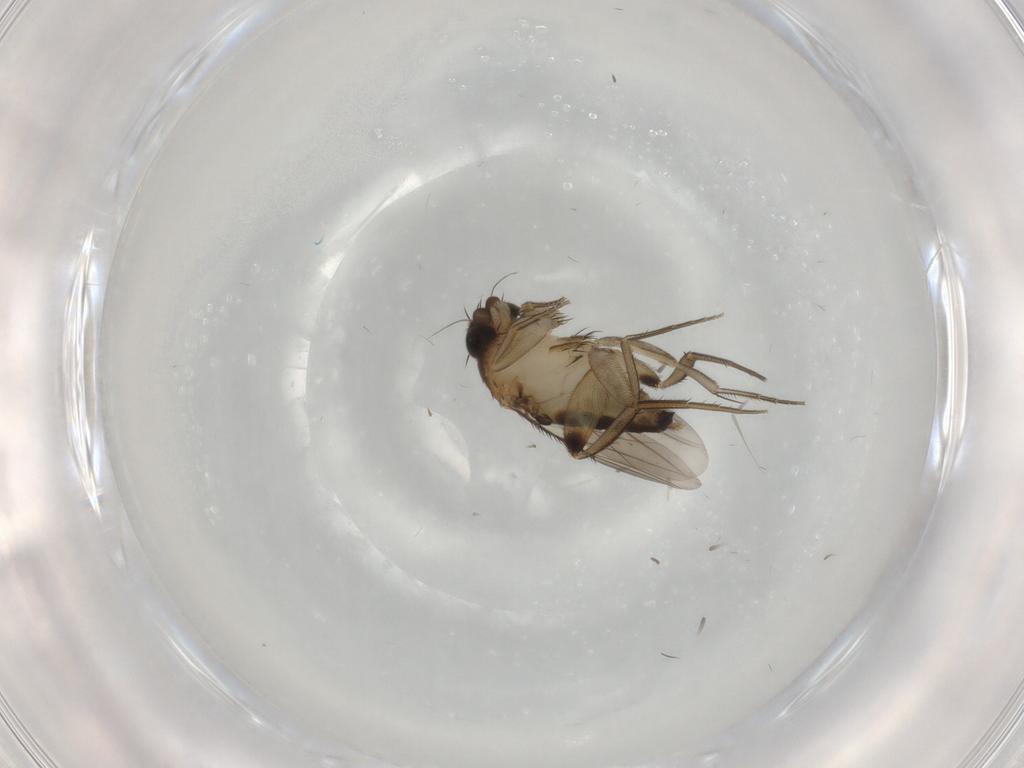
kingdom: Animalia
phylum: Arthropoda
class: Insecta
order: Diptera
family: Phoridae
